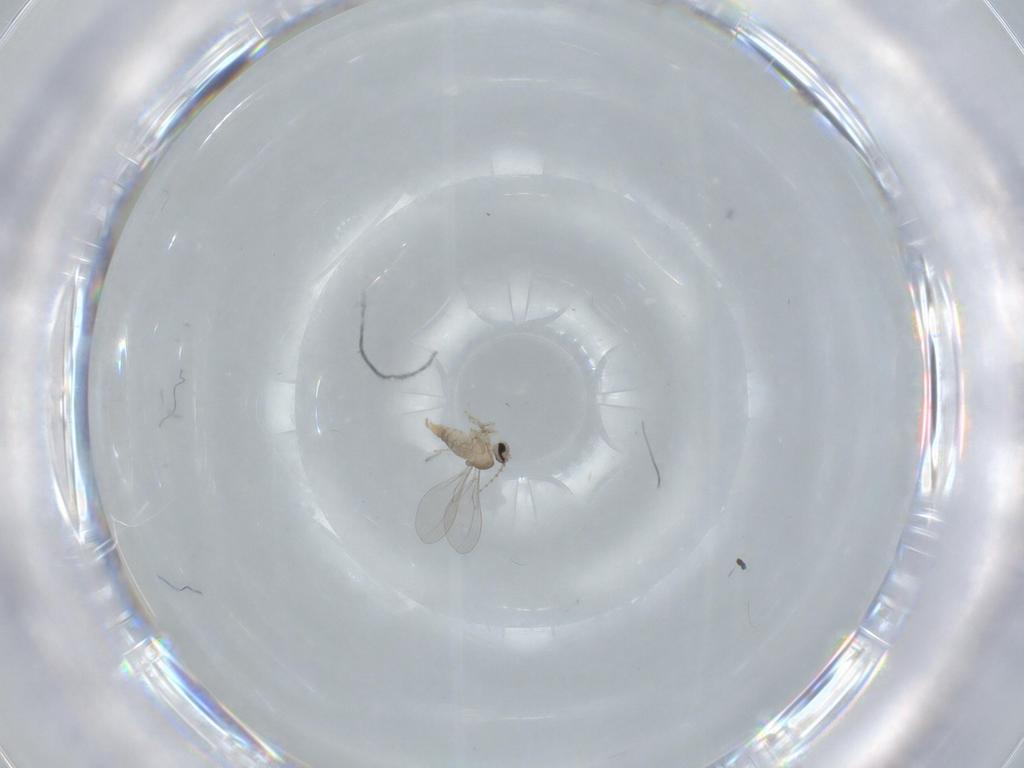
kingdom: Animalia
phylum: Arthropoda
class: Insecta
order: Diptera
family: Cecidomyiidae
